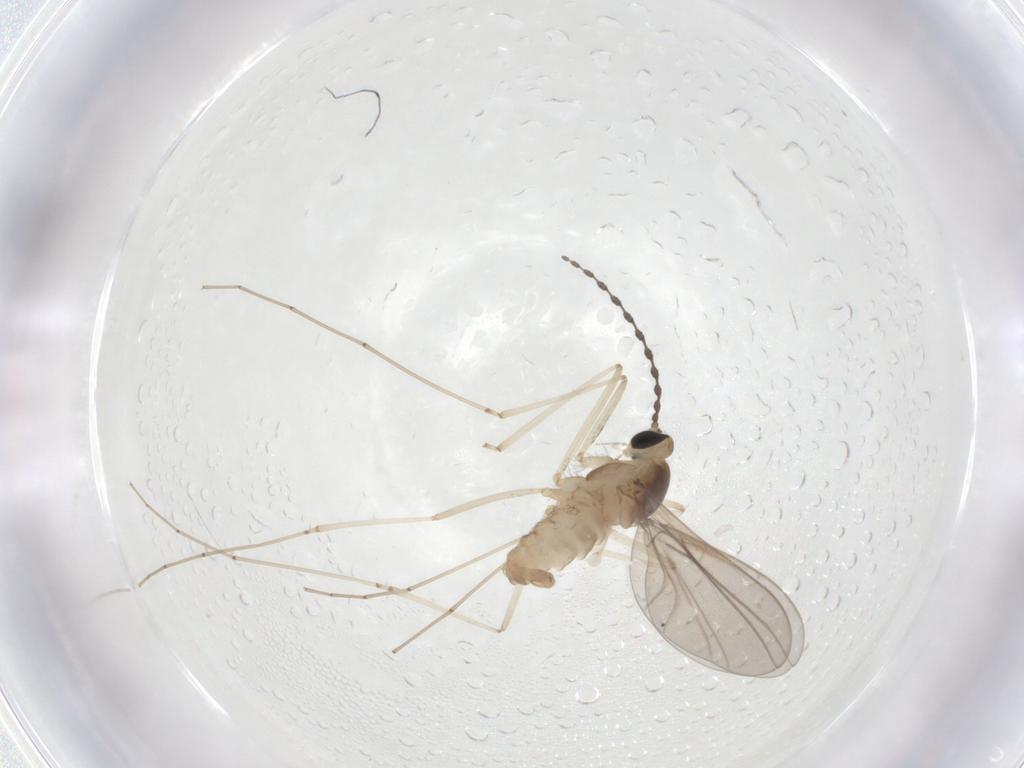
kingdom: Animalia
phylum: Arthropoda
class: Insecta
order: Diptera
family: Cecidomyiidae
